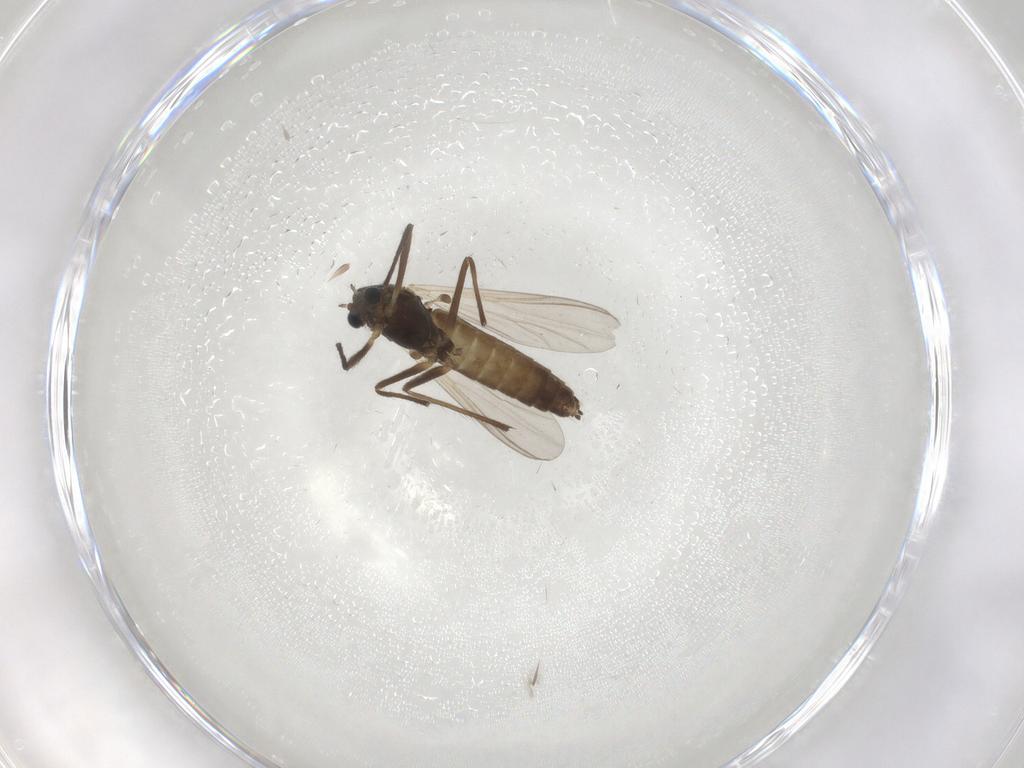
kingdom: Animalia
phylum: Arthropoda
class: Insecta
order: Diptera
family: Chironomidae
